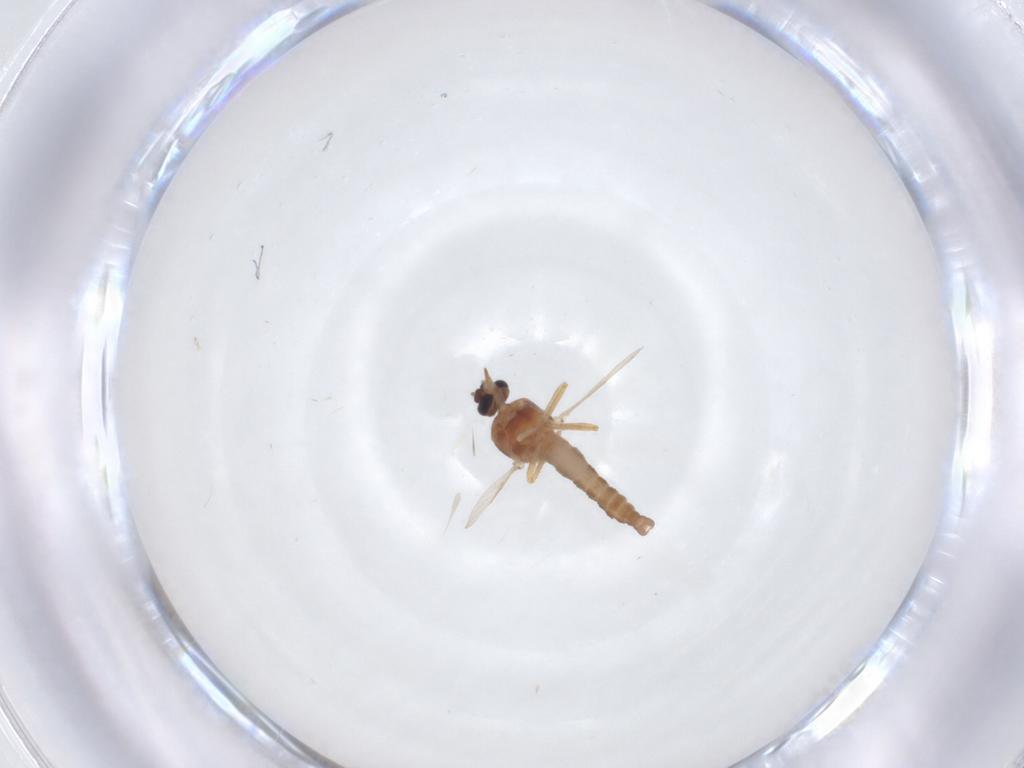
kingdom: Animalia
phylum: Arthropoda
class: Insecta
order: Diptera
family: Ceratopogonidae
